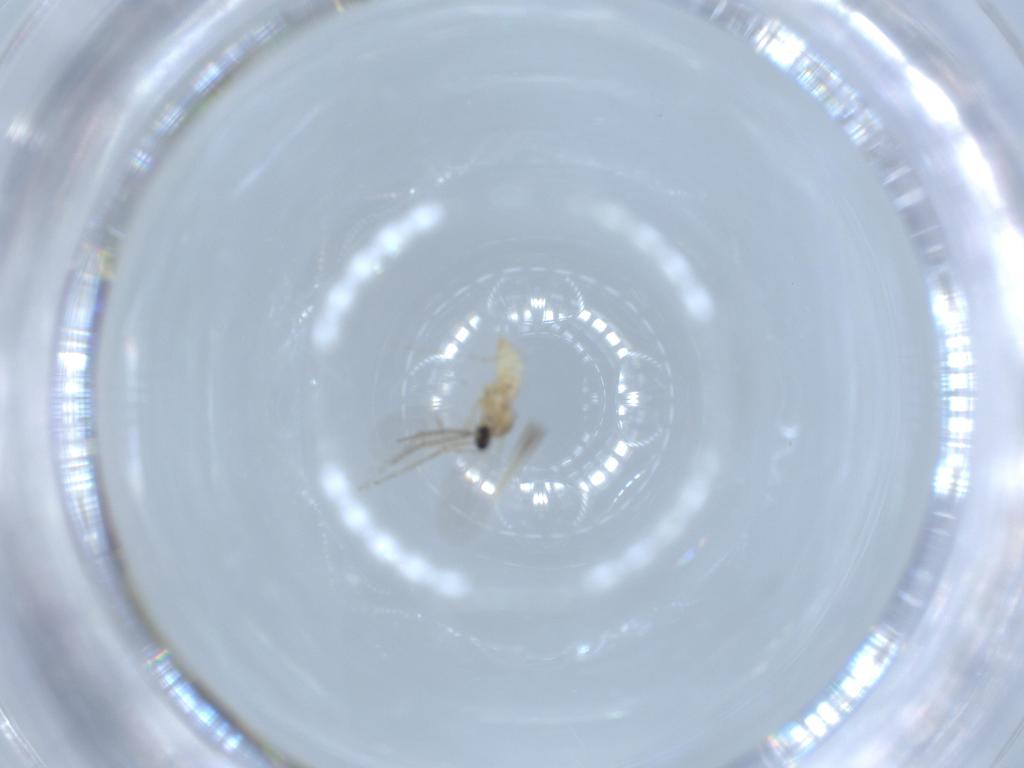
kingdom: Animalia
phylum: Arthropoda
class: Insecta
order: Diptera
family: Cecidomyiidae
